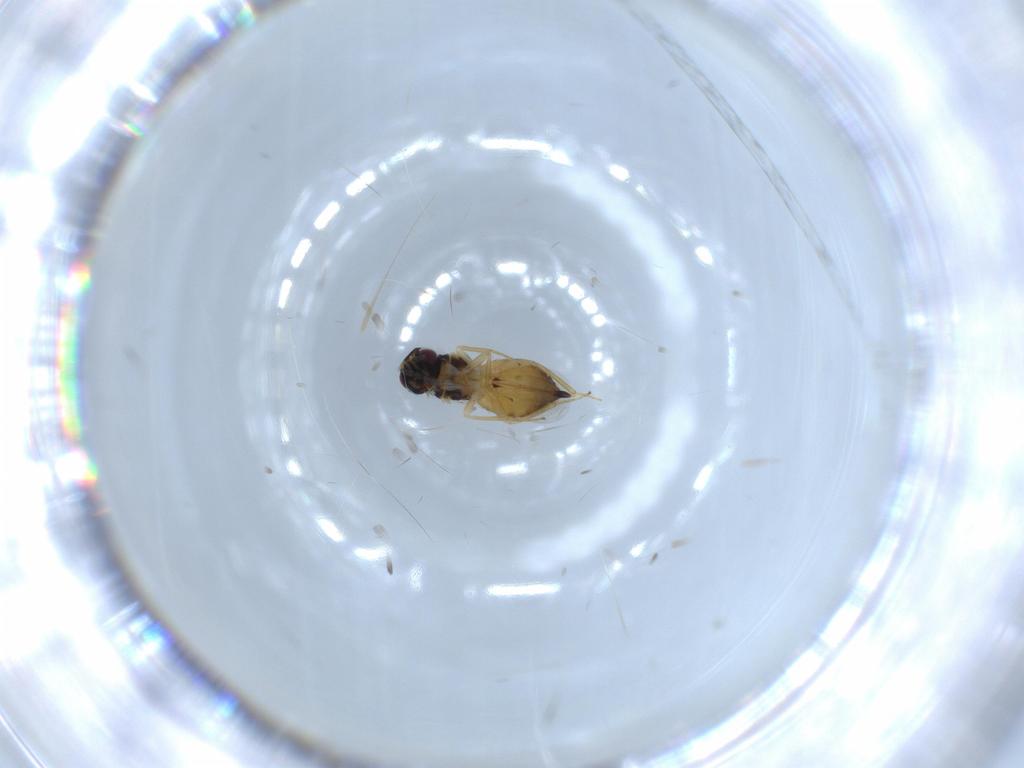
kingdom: Animalia
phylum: Arthropoda
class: Insecta
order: Hymenoptera
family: Eulophidae
